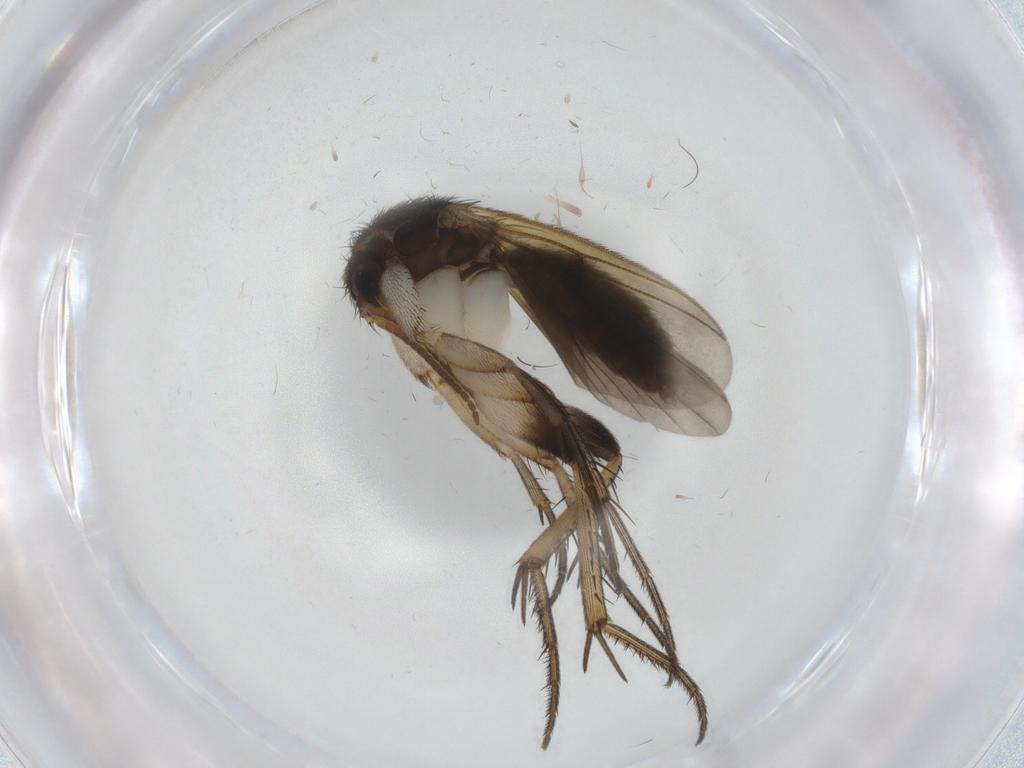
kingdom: Animalia
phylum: Arthropoda
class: Insecta
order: Diptera
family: Mycetophilidae
